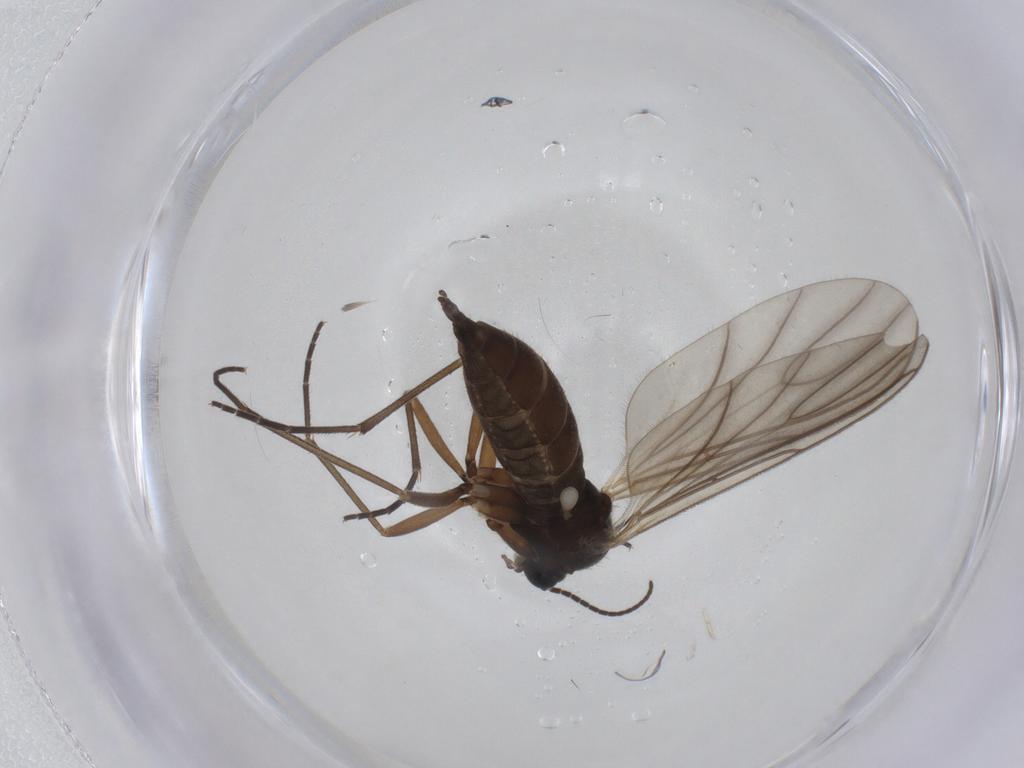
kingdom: Animalia
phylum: Arthropoda
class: Insecta
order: Diptera
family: Sciaridae
